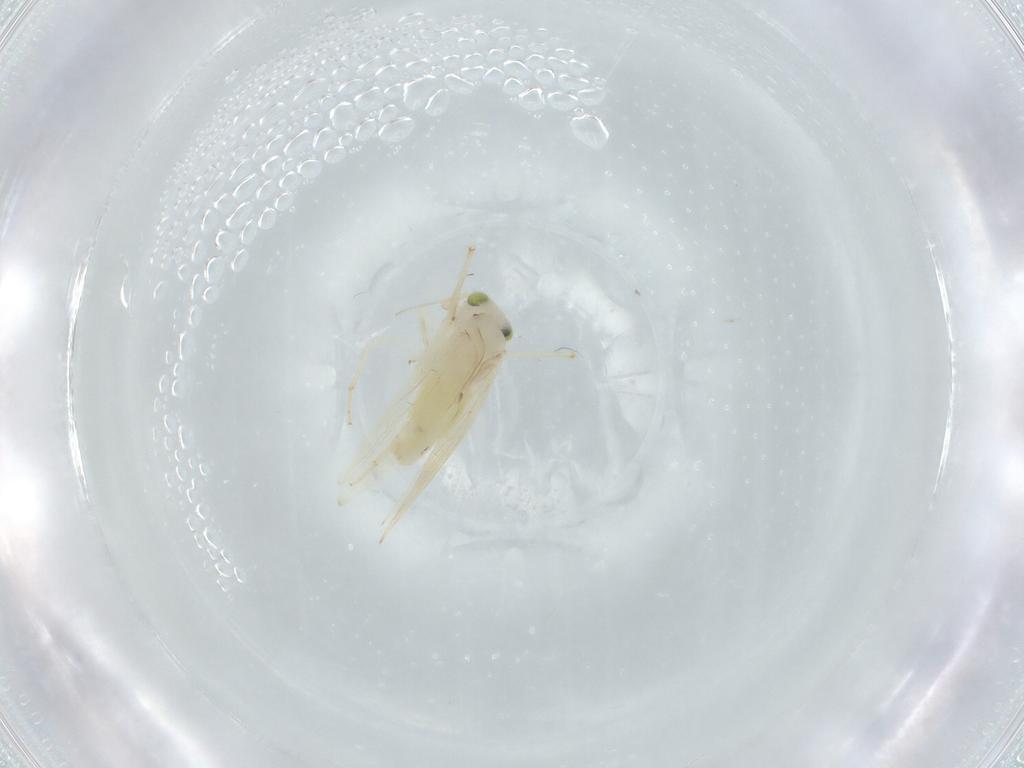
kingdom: Animalia
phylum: Arthropoda
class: Insecta
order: Psocodea
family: Lepidopsocidae
